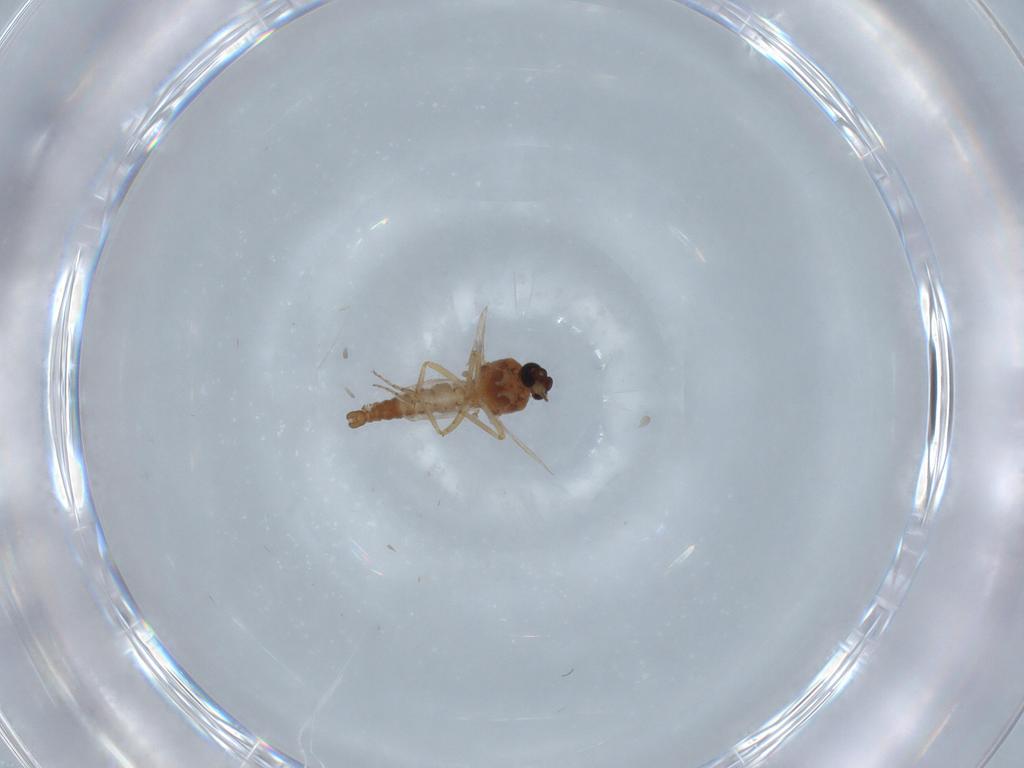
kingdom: Animalia
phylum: Arthropoda
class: Insecta
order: Diptera
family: Ceratopogonidae
